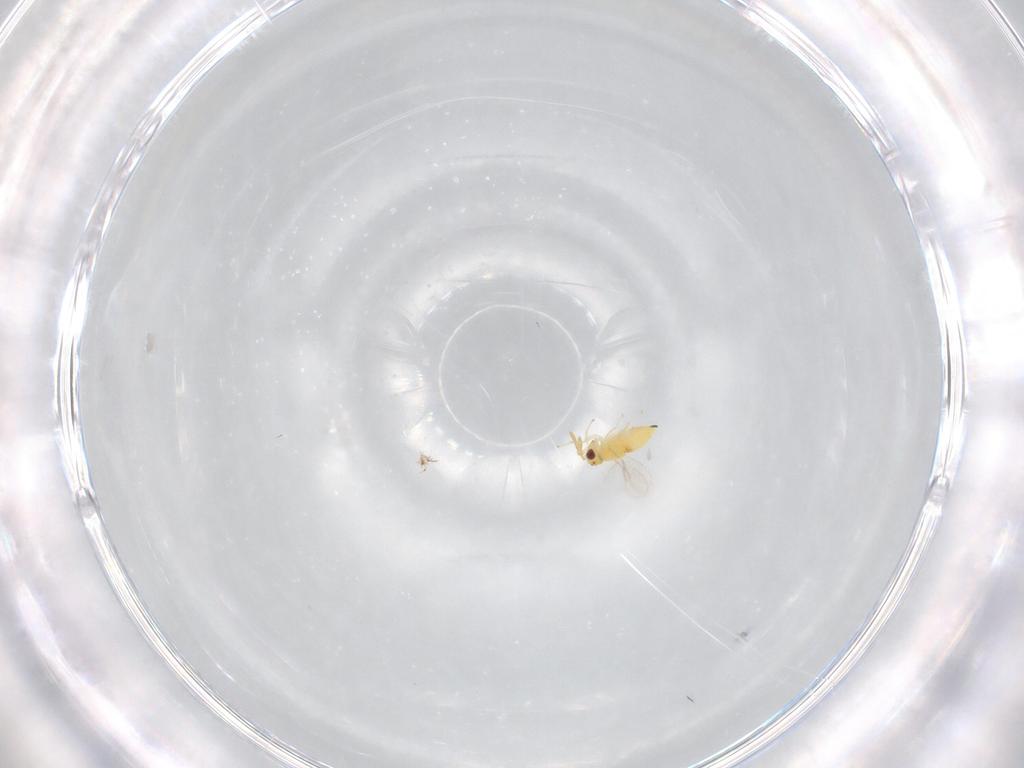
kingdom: Animalia
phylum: Arthropoda
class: Insecta
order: Hymenoptera
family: Aphelinidae
